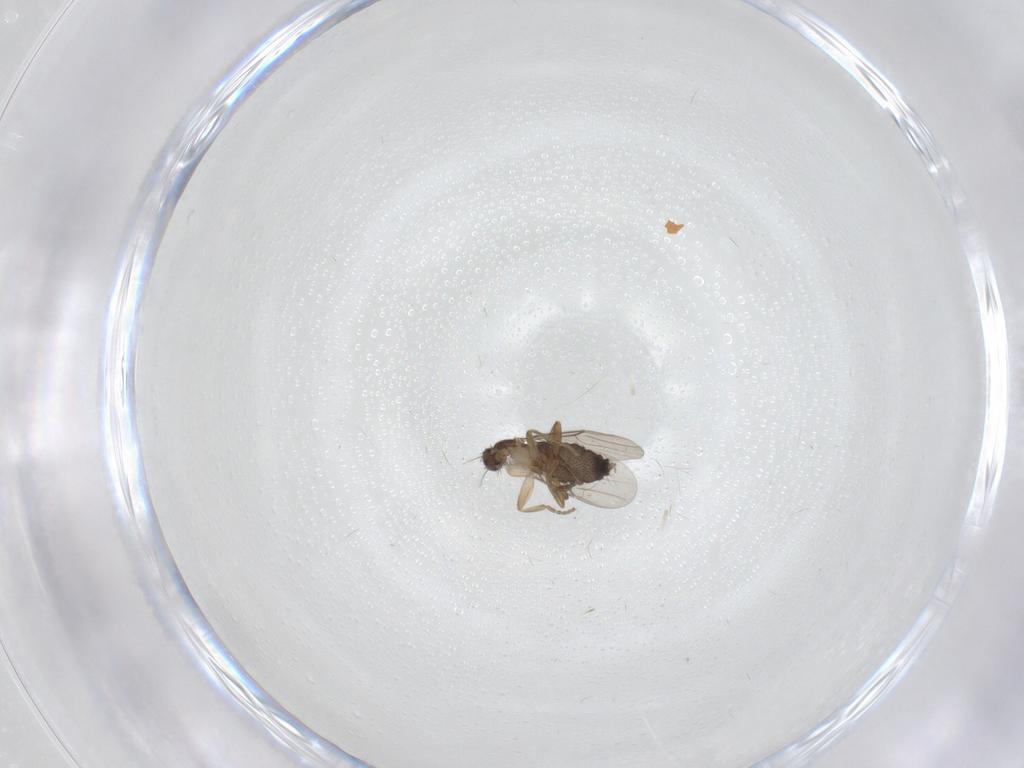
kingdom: Animalia
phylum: Arthropoda
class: Insecta
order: Diptera
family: Phoridae
